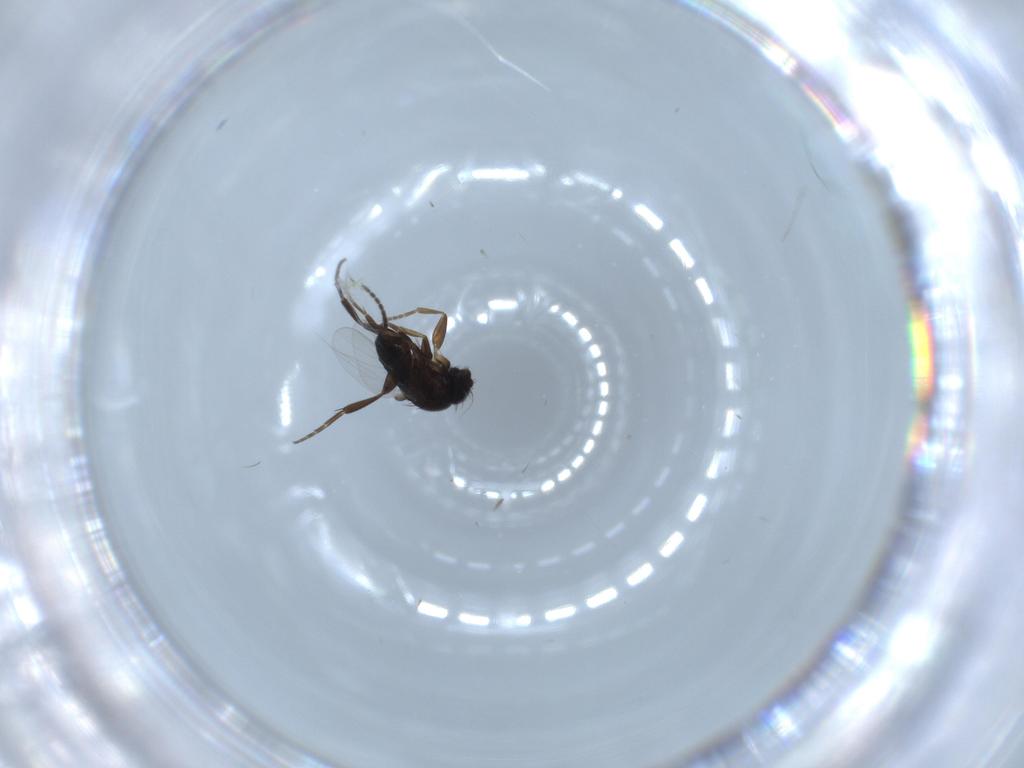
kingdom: Animalia
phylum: Arthropoda
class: Insecta
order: Diptera
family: Phoridae
